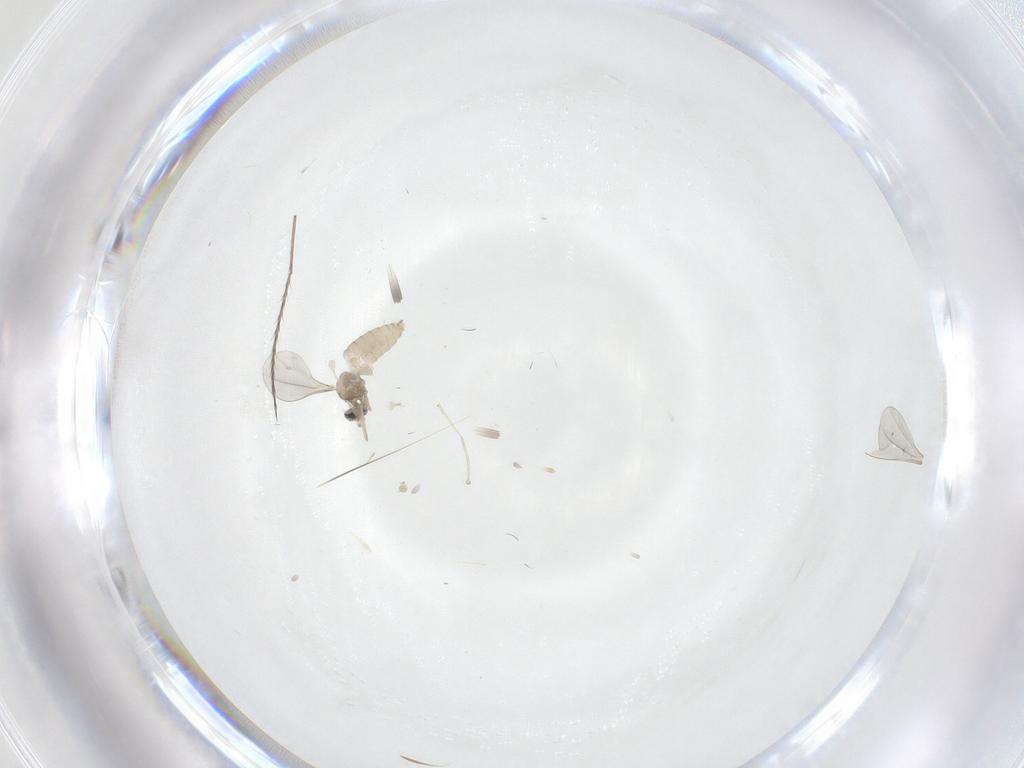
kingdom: Animalia
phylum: Arthropoda
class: Insecta
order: Diptera
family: Cecidomyiidae
